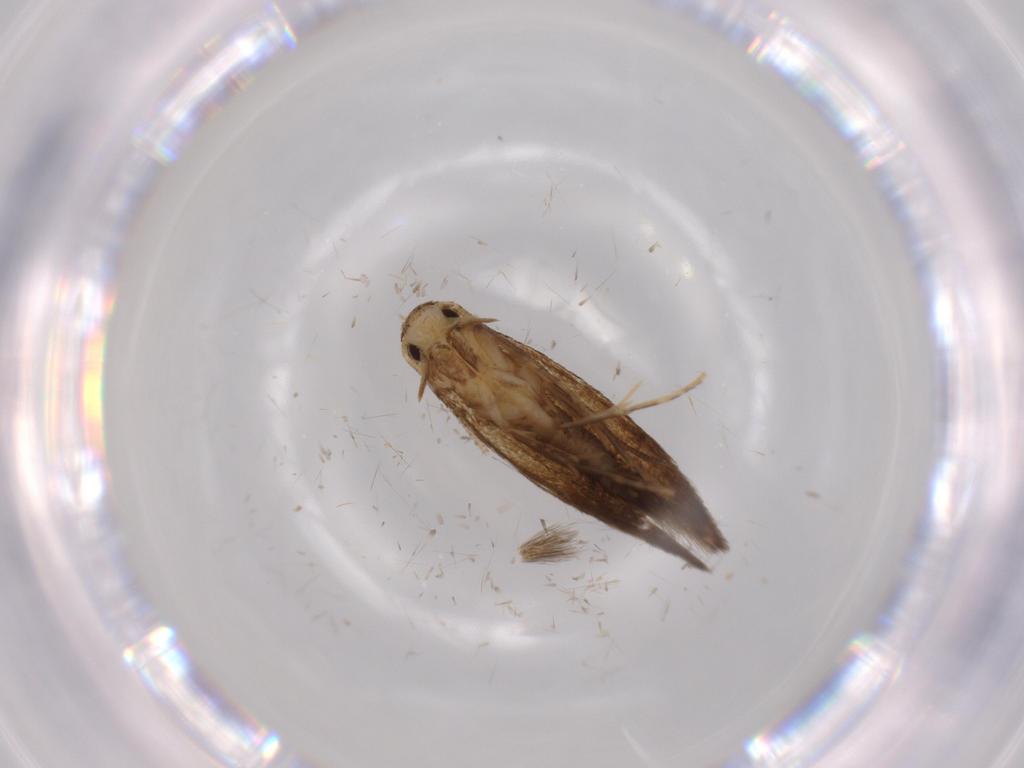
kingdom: Animalia
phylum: Arthropoda
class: Insecta
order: Lepidoptera
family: Tineidae
